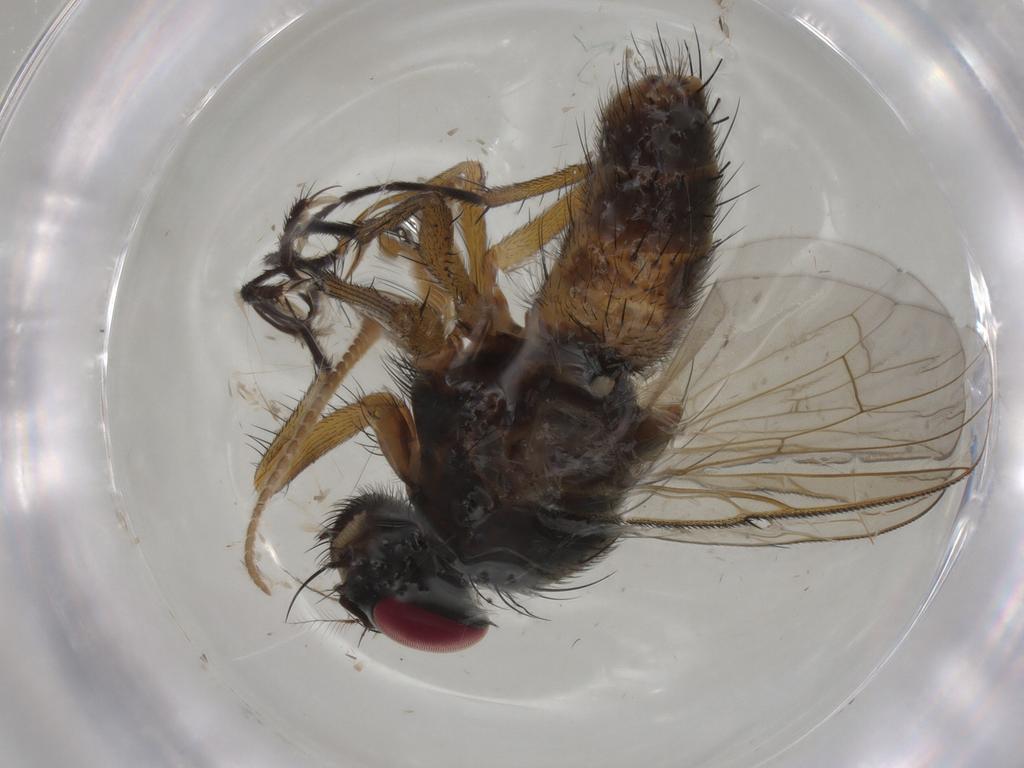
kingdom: Animalia
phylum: Arthropoda
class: Insecta
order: Diptera
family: Muscidae
